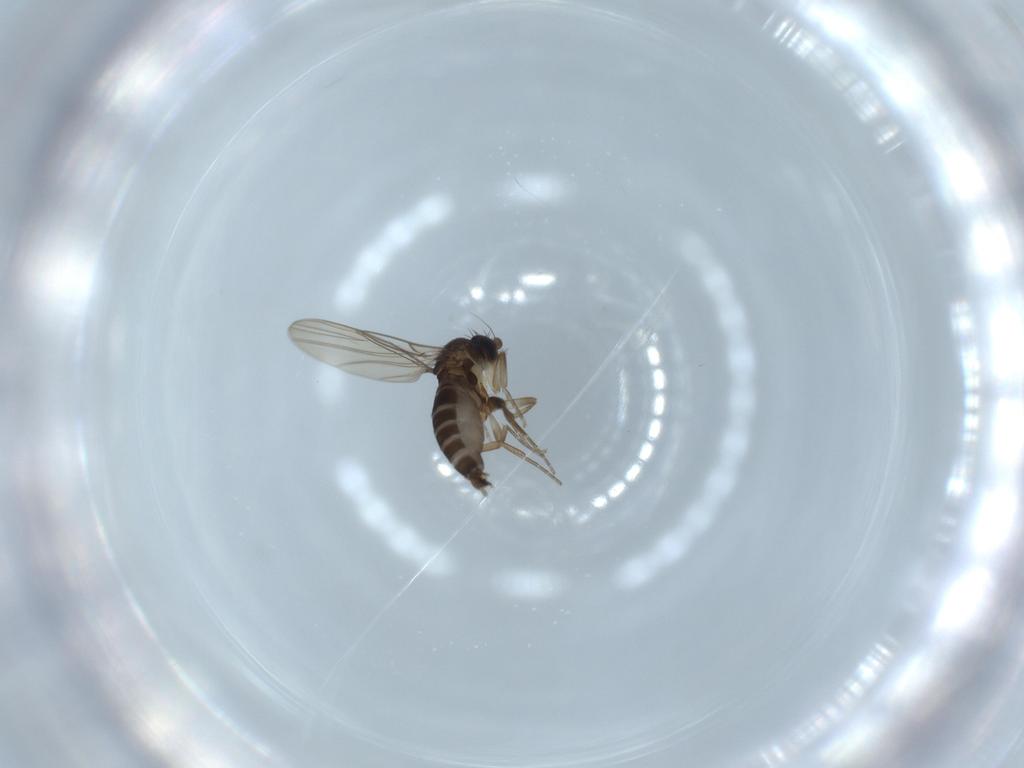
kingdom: Animalia
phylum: Arthropoda
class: Insecta
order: Diptera
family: Phoridae
